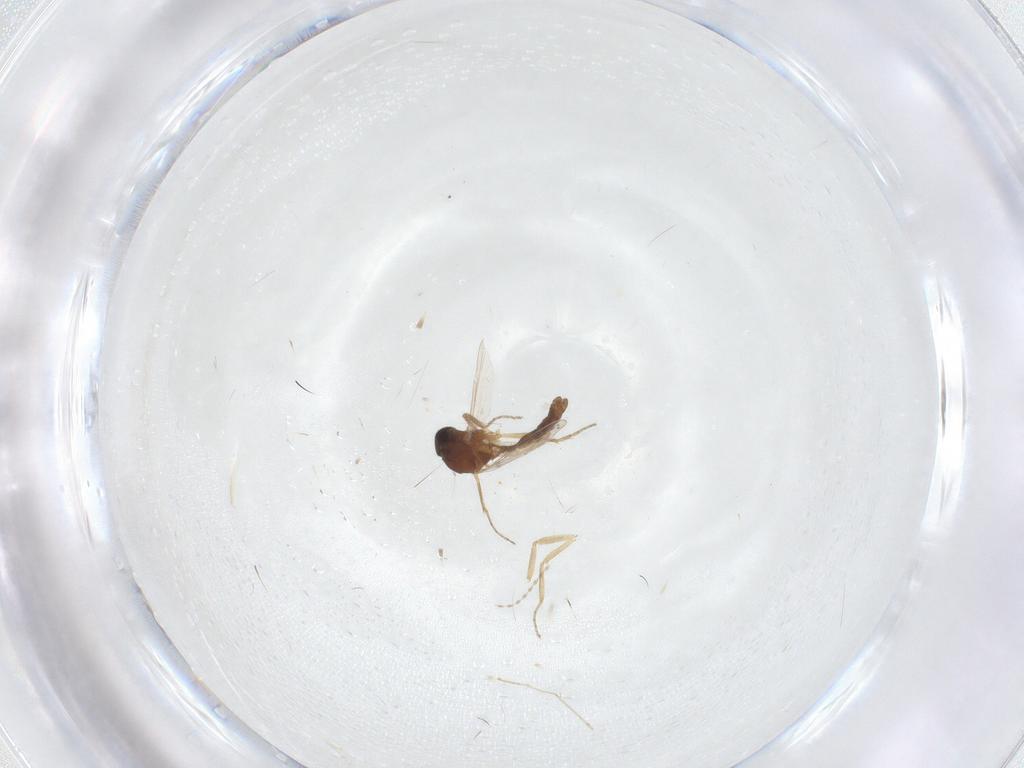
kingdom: Animalia
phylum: Arthropoda
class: Insecta
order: Diptera
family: Ceratopogonidae
